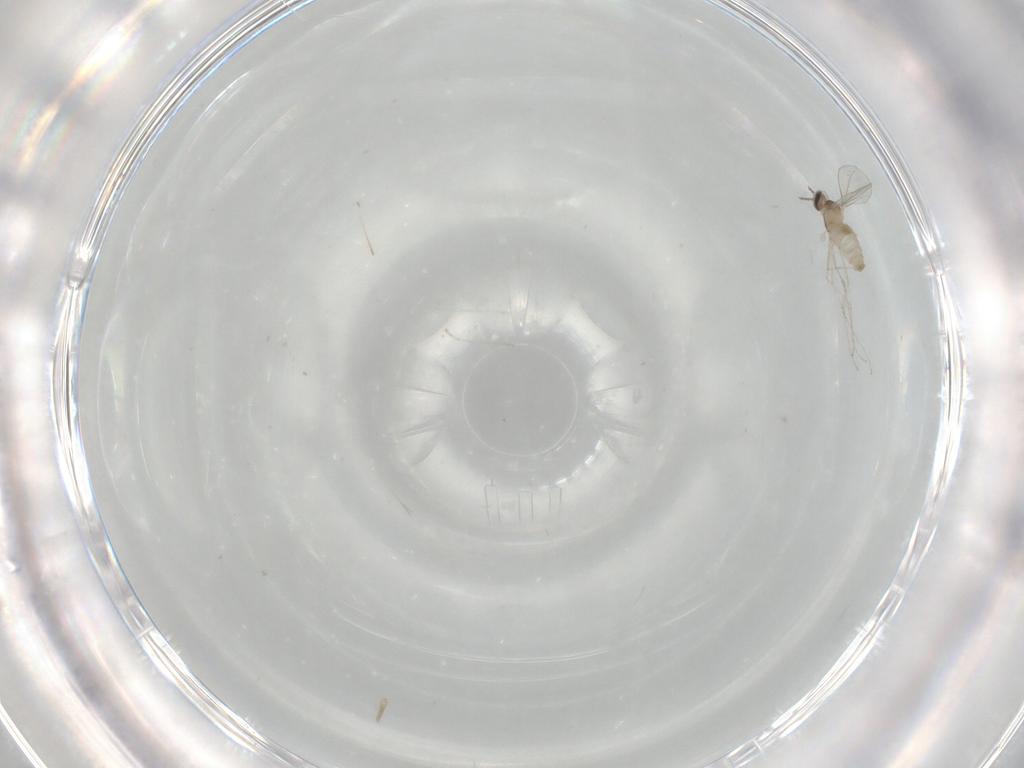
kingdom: Animalia
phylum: Arthropoda
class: Insecta
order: Diptera
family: Cecidomyiidae
